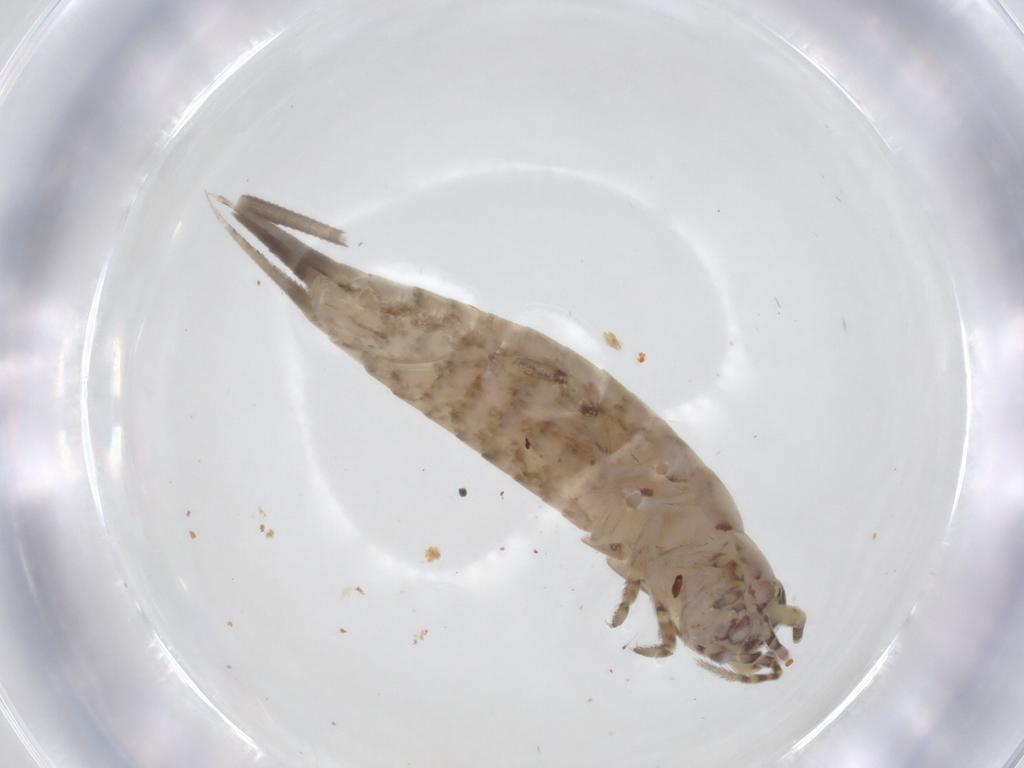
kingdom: Animalia
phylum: Arthropoda
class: Insecta
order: Archaeognatha
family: Meinertellidae
